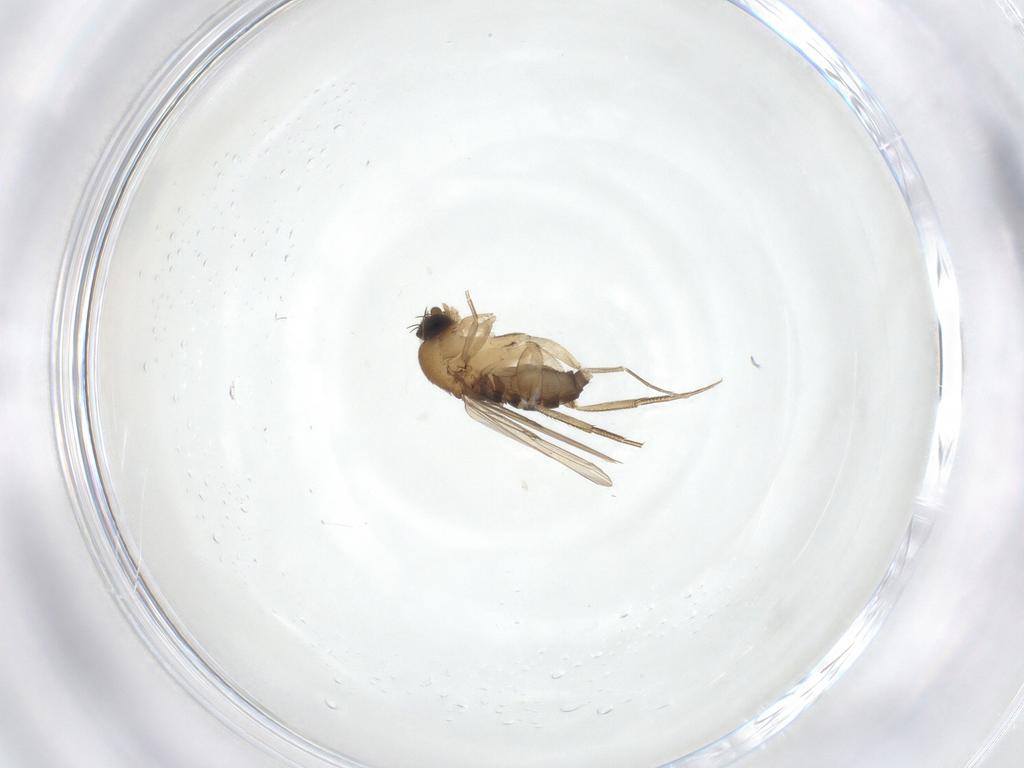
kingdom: Animalia
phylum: Arthropoda
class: Insecta
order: Diptera
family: Phoridae
